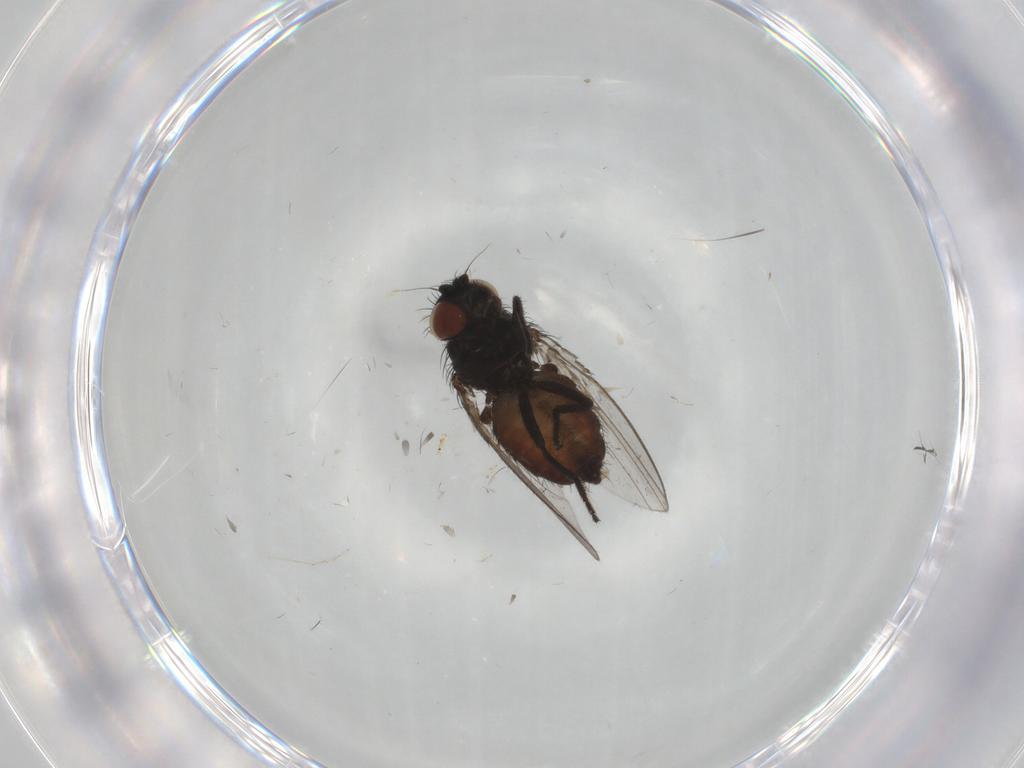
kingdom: Animalia
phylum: Arthropoda
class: Insecta
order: Diptera
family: Milichiidae
